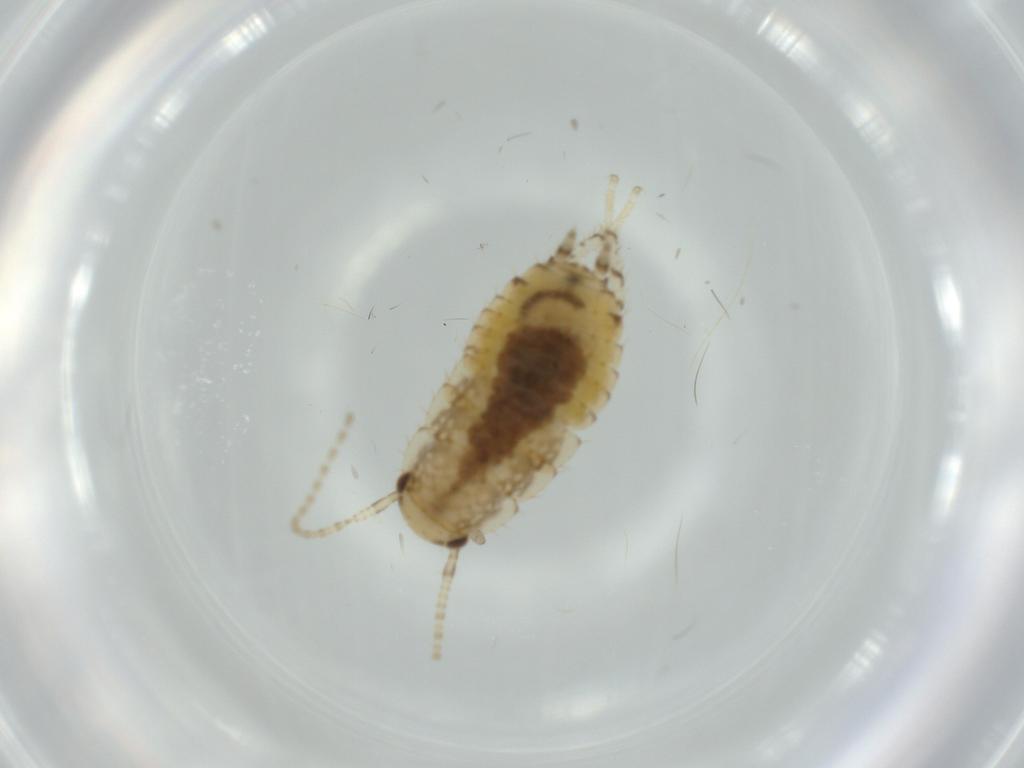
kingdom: Animalia
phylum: Arthropoda
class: Insecta
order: Blattodea
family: Ectobiidae
